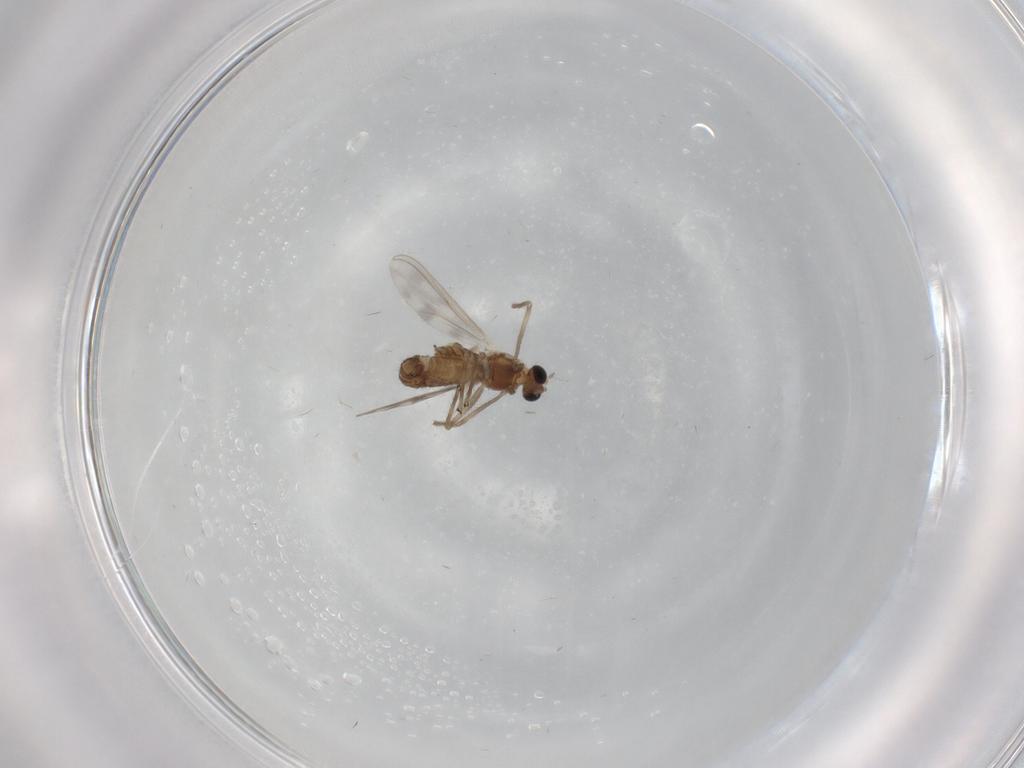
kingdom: Animalia
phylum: Arthropoda
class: Insecta
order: Diptera
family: Chironomidae
